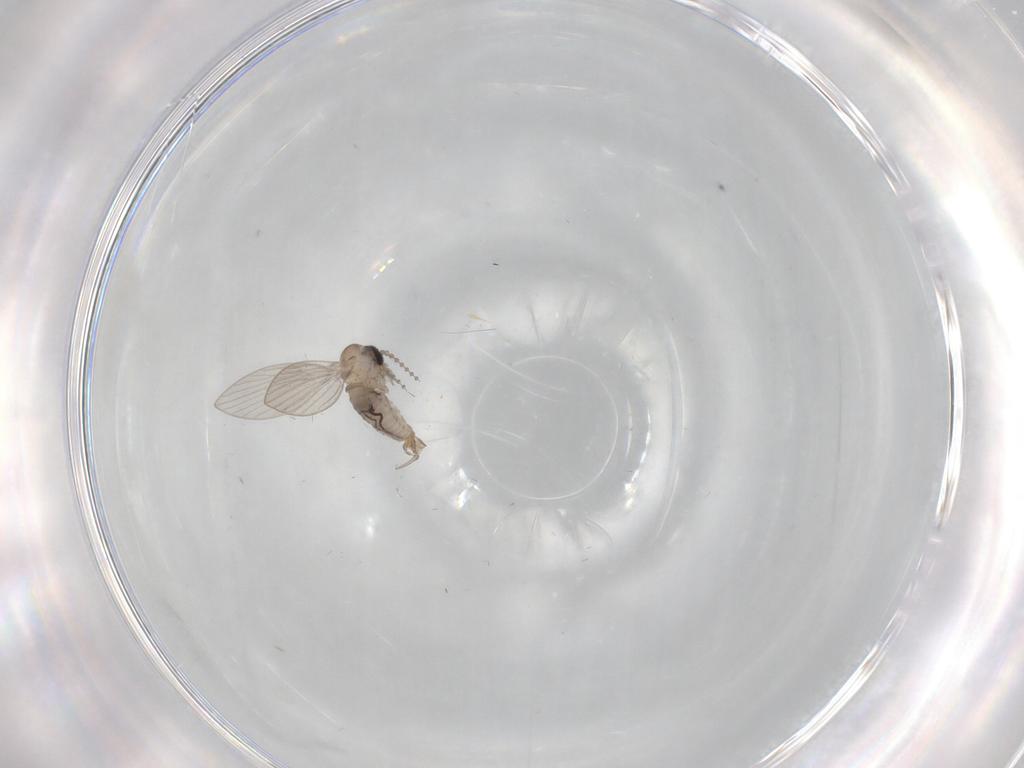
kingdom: Animalia
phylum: Arthropoda
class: Insecta
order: Diptera
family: Psychodidae
